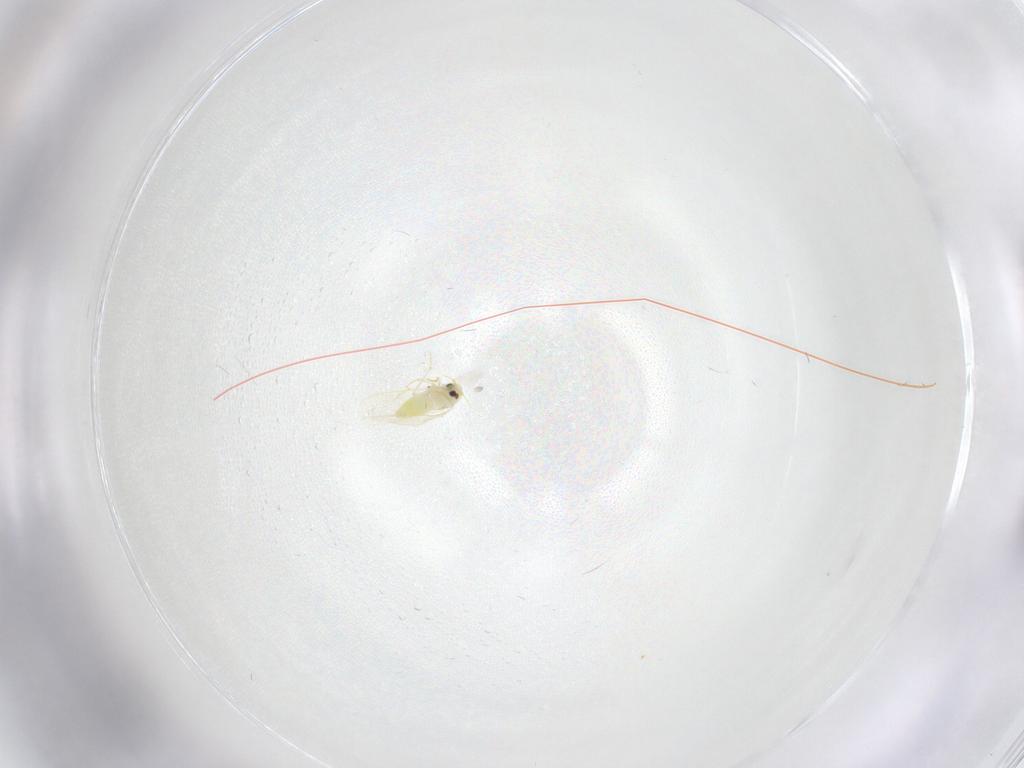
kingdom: Animalia
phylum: Arthropoda
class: Insecta
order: Hemiptera
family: Aleyrodidae
